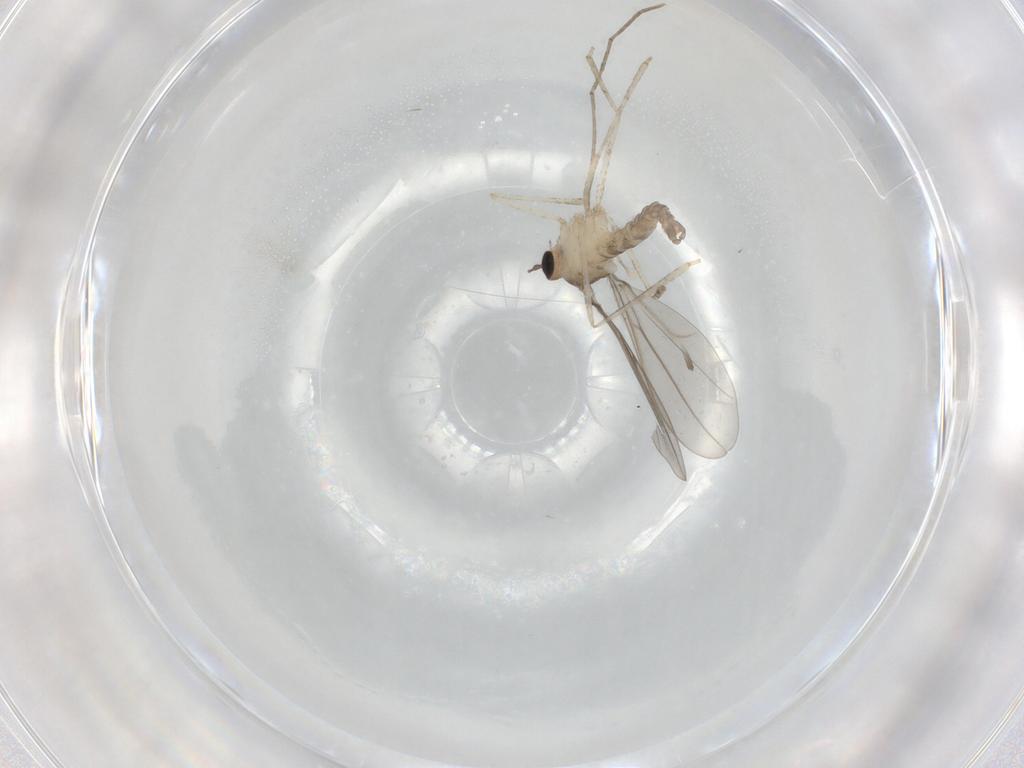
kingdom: Animalia
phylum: Arthropoda
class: Insecta
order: Diptera
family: Cecidomyiidae
